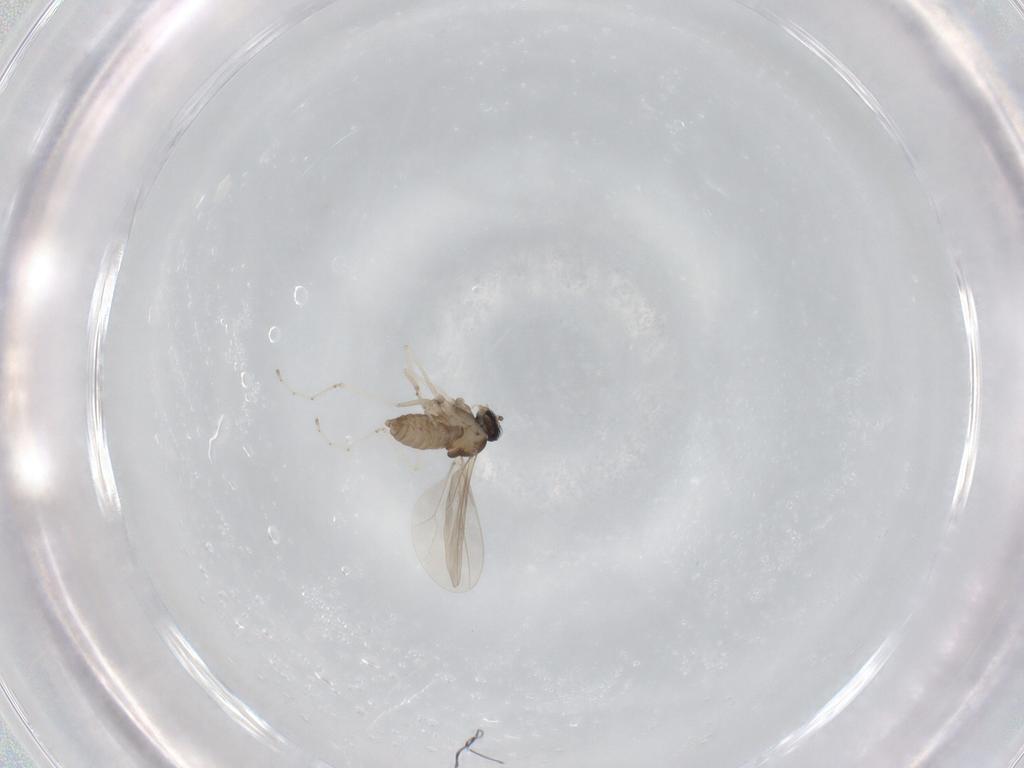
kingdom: Animalia
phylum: Arthropoda
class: Insecta
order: Diptera
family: Cecidomyiidae
